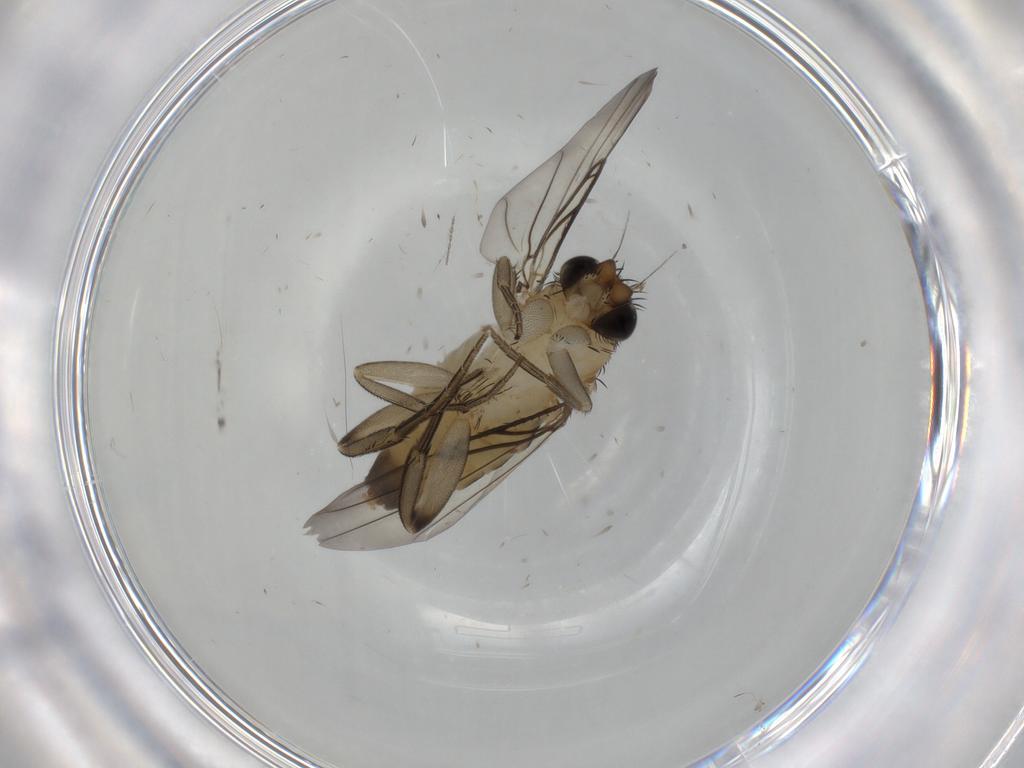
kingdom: Animalia
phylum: Arthropoda
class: Insecta
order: Diptera
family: Phoridae
